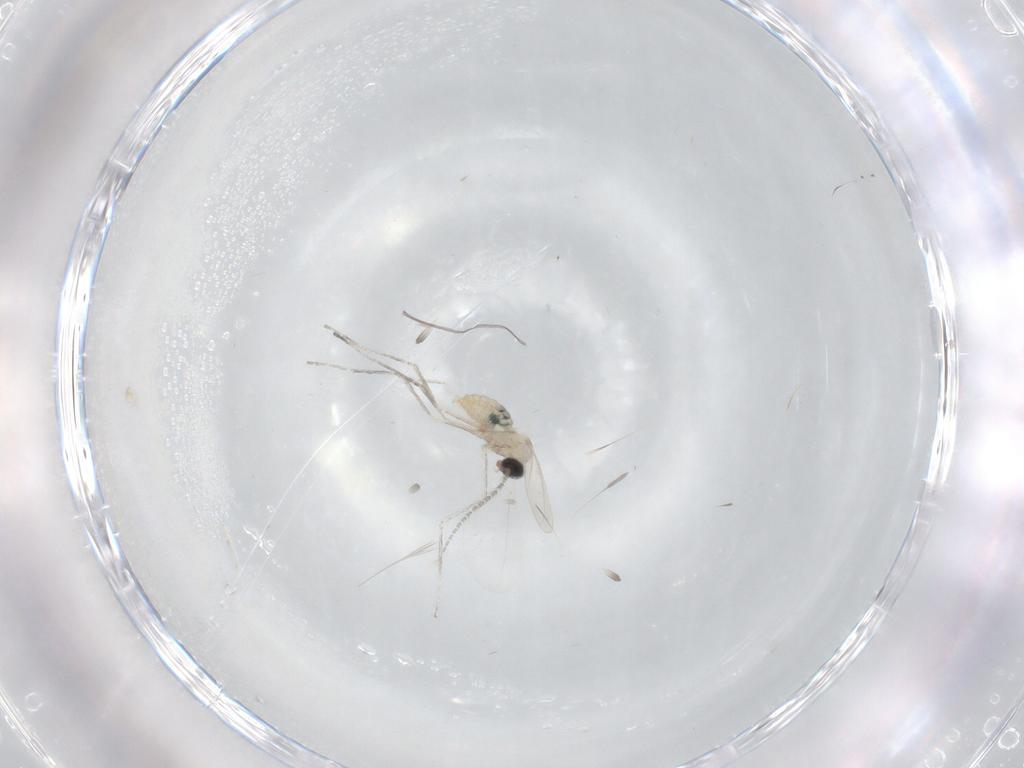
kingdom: Animalia
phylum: Arthropoda
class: Insecta
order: Diptera
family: Cecidomyiidae
